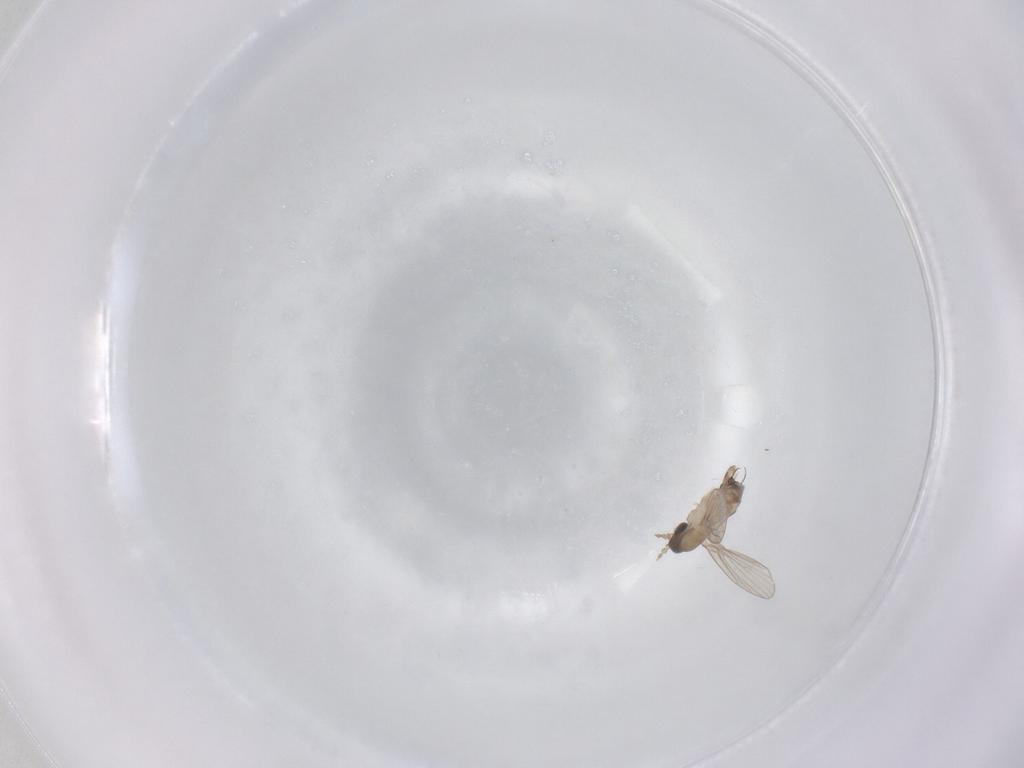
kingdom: Animalia
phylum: Arthropoda
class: Insecta
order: Diptera
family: Psychodidae
